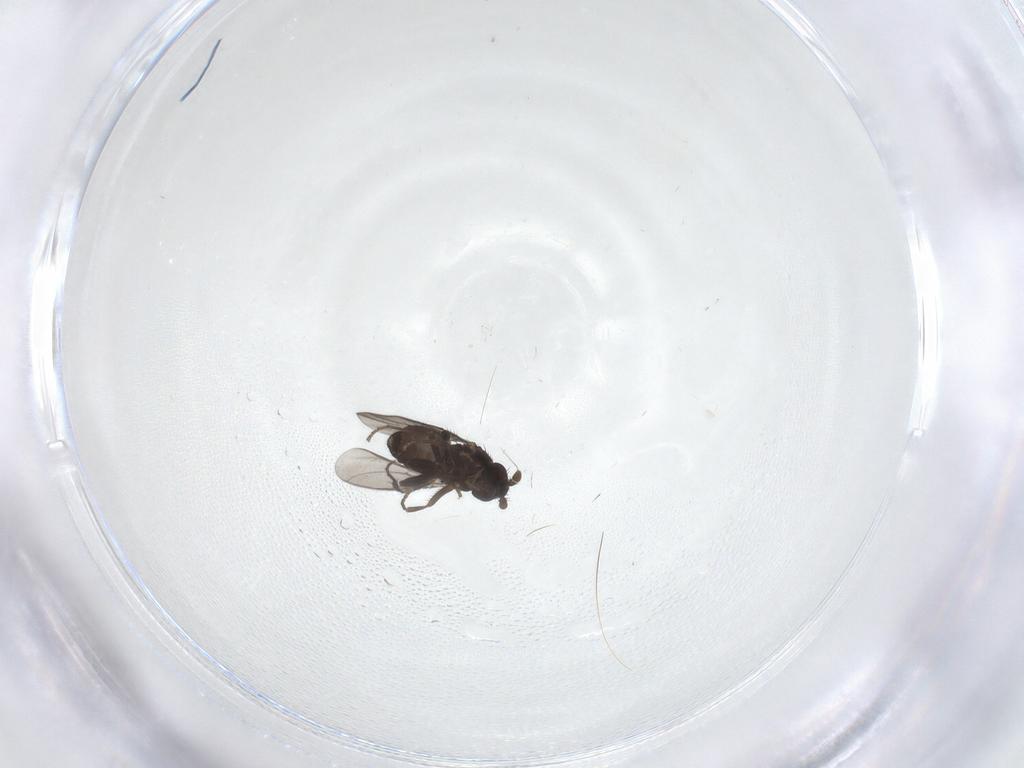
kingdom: Animalia
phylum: Arthropoda
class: Insecta
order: Diptera
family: Sphaeroceridae
